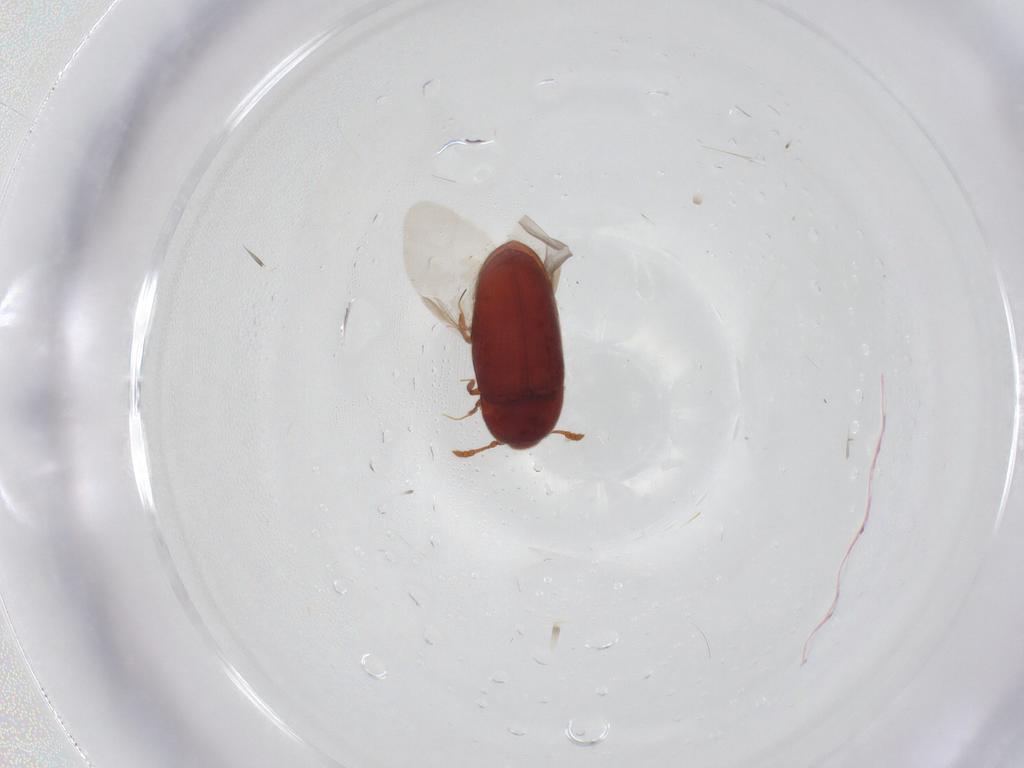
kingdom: Animalia
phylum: Arthropoda
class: Insecta
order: Coleoptera
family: Throscidae
